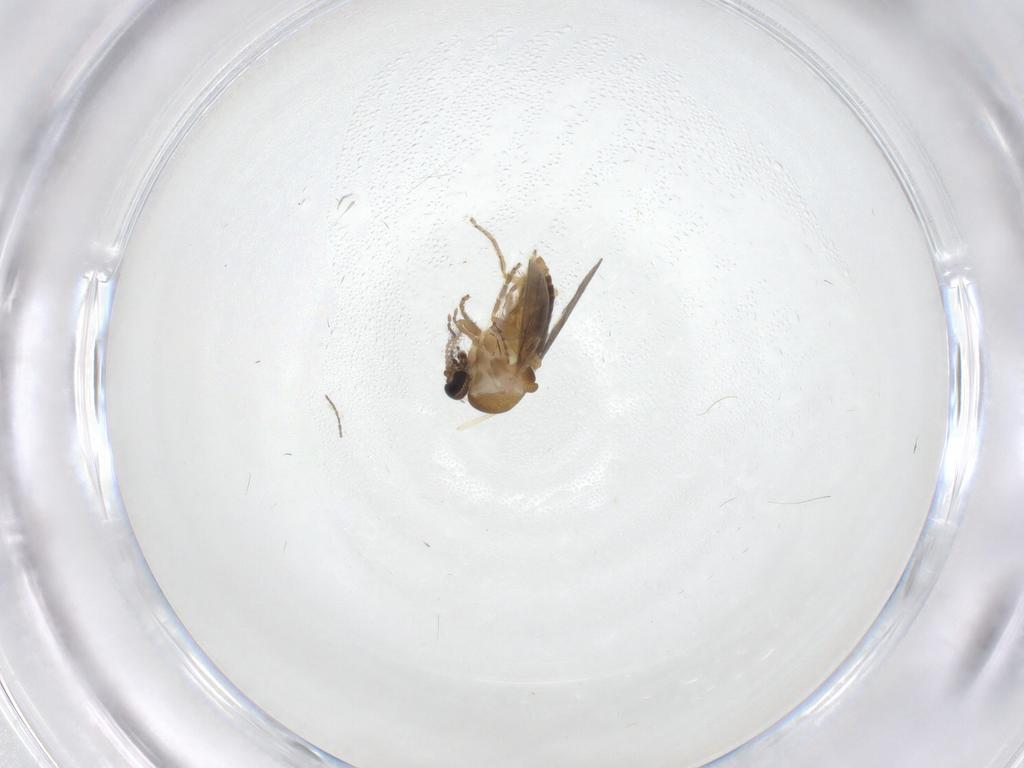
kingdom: Animalia
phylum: Arthropoda
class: Insecta
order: Diptera
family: Ceratopogonidae
